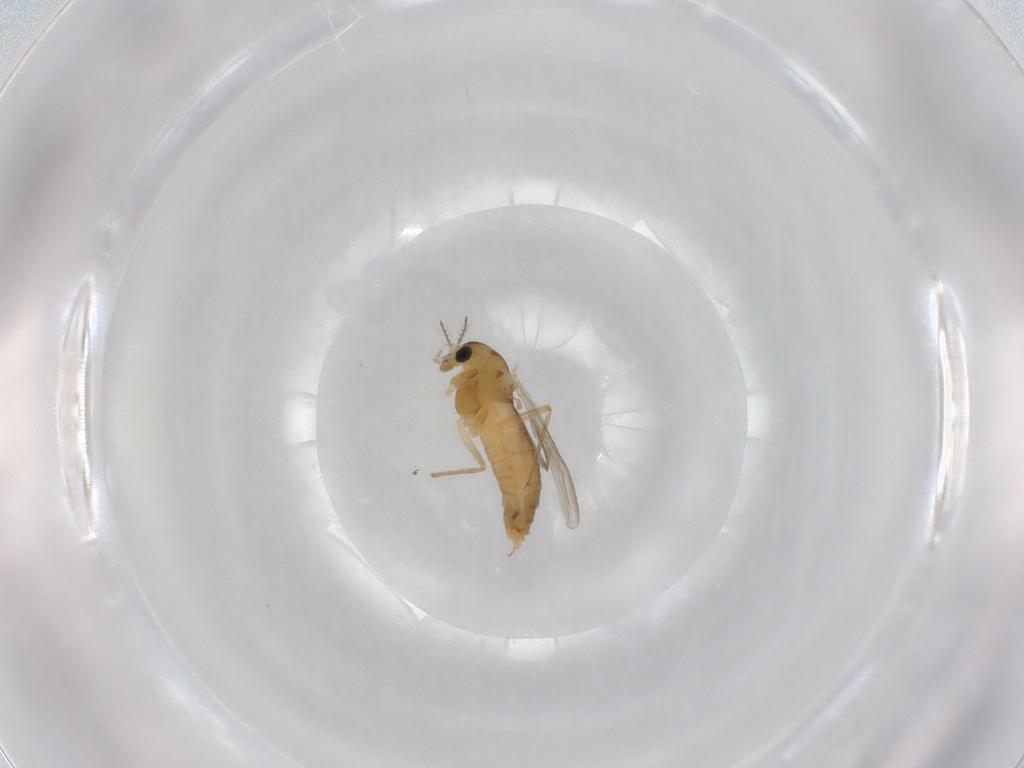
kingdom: Animalia
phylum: Arthropoda
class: Insecta
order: Diptera
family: Chironomidae
